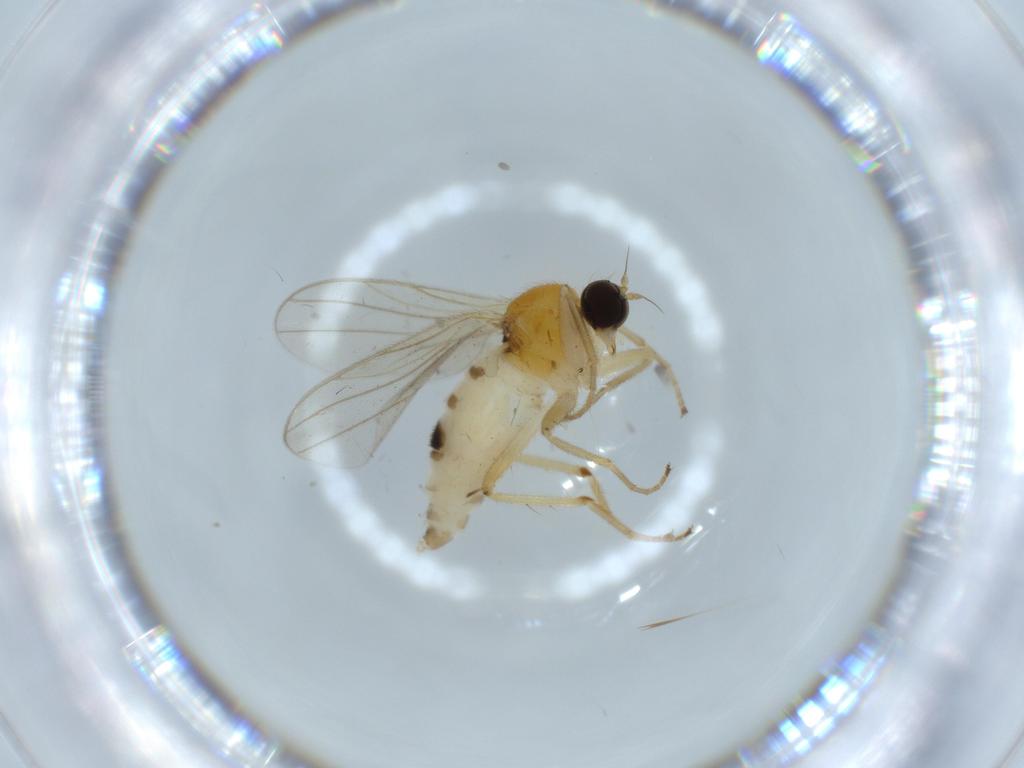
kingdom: Animalia
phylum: Arthropoda
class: Insecta
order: Diptera
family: Hybotidae
